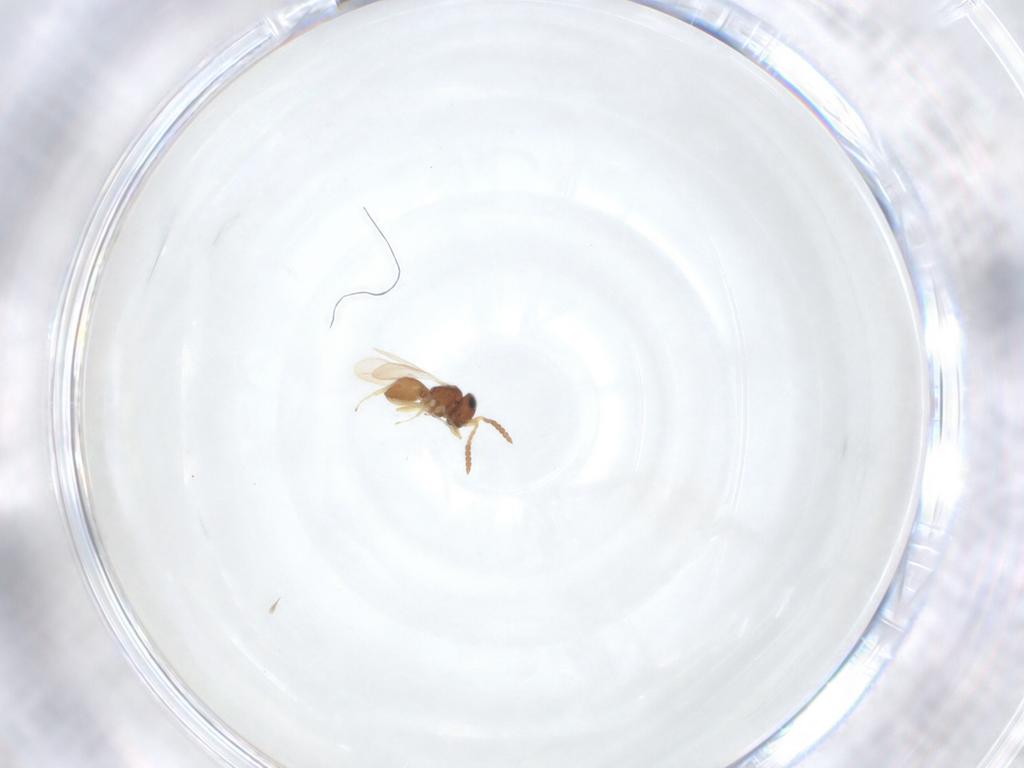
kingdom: Animalia
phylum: Arthropoda
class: Insecta
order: Hymenoptera
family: Scelionidae
